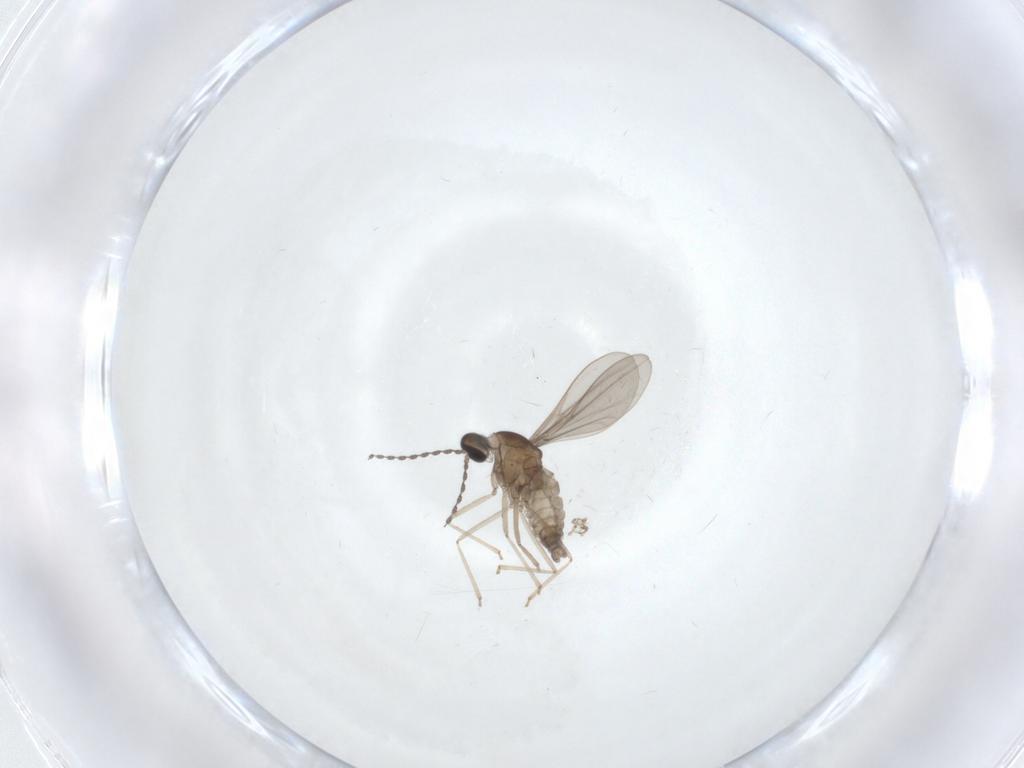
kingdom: Animalia
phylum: Arthropoda
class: Insecta
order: Diptera
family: Cecidomyiidae
